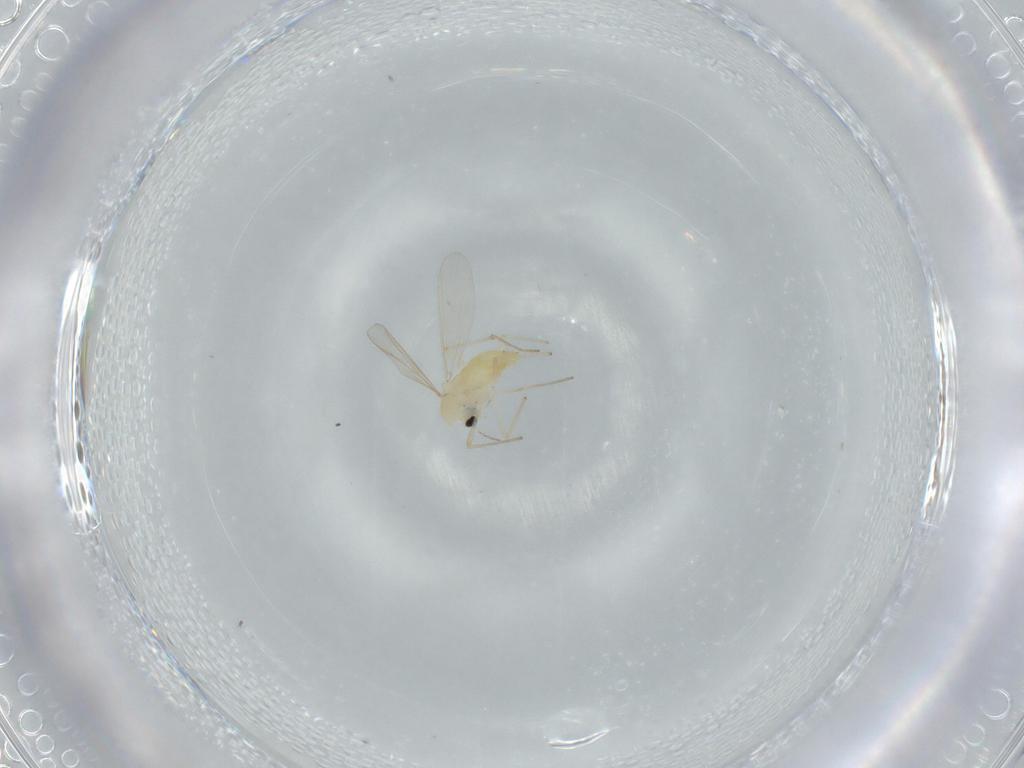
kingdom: Animalia
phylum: Arthropoda
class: Insecta
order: Diptera
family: Chironomidae
